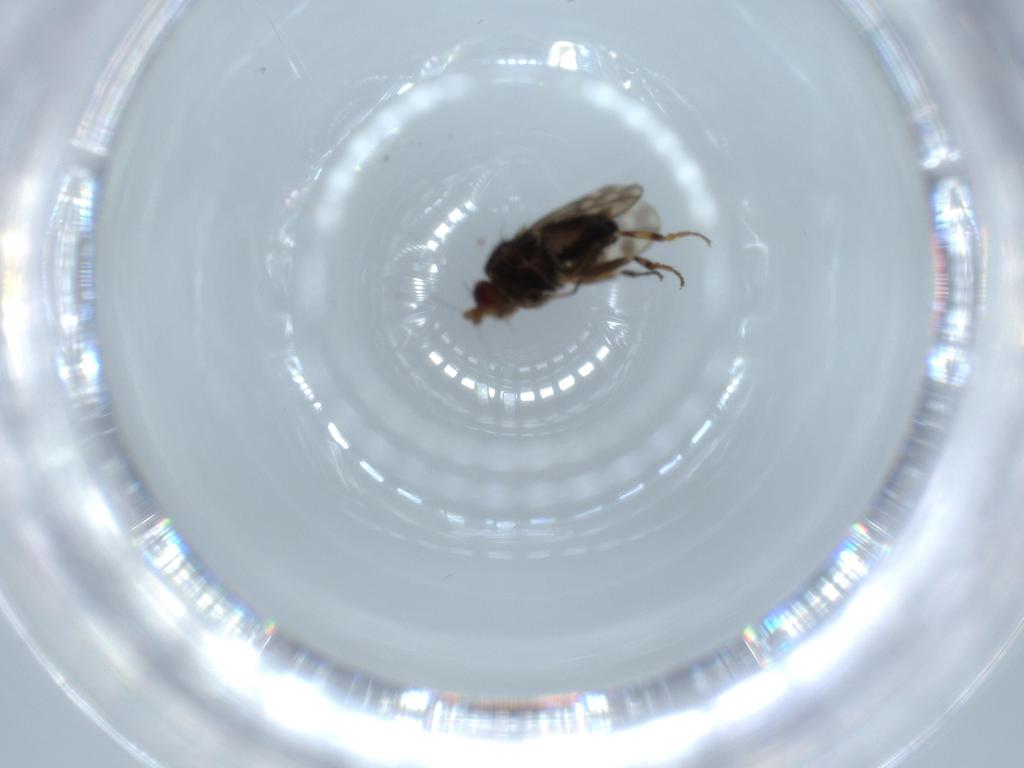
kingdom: Animalia
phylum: Arthropoda
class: Insecta
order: Diptera
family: Sphaeroceridae
